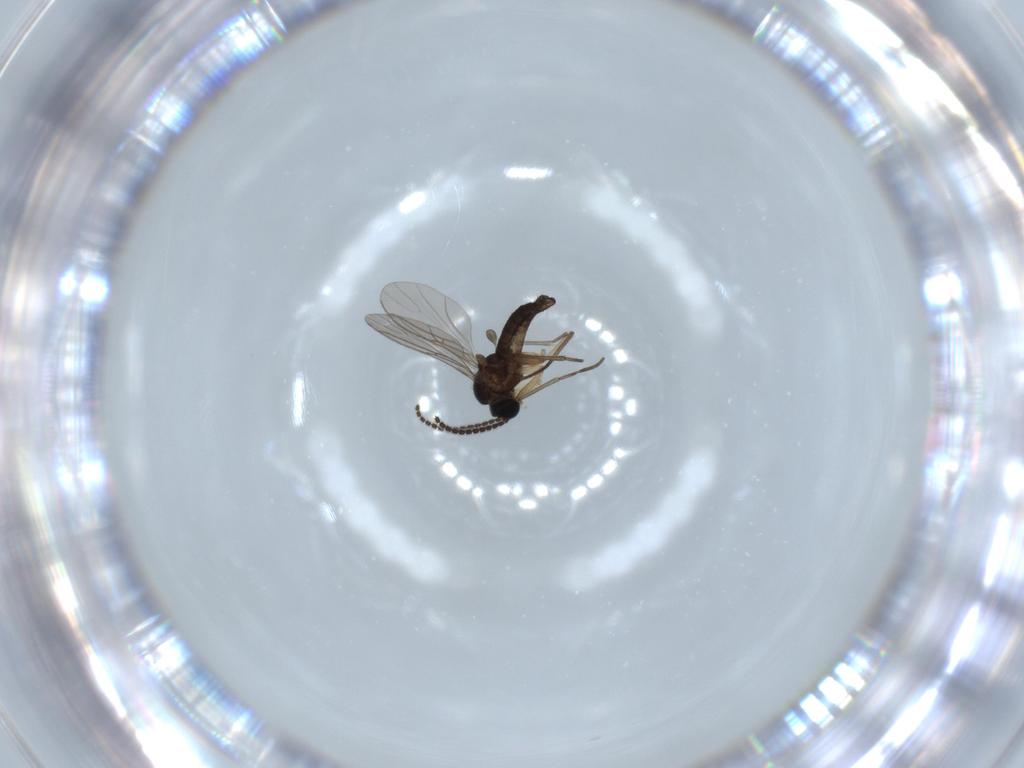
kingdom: Animalia
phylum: Arthropoda
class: Insecta
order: Diptera
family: Sciaridae
